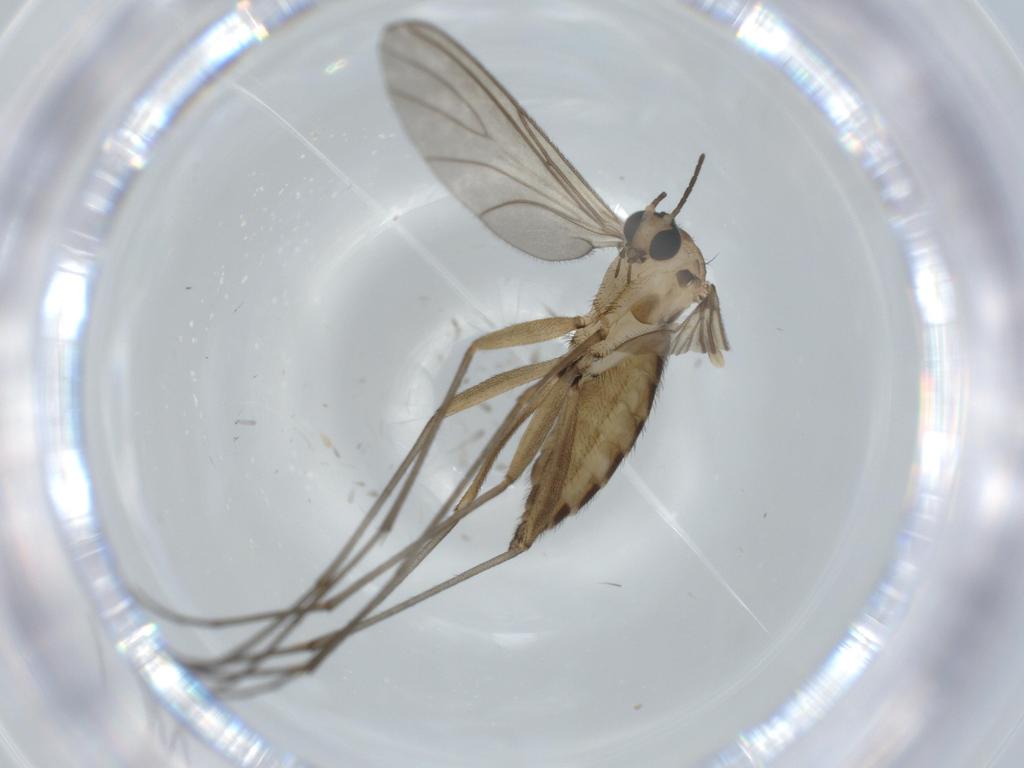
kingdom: Animalia
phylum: Arthropoda
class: Insecta
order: Diptera
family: Sciaridae
